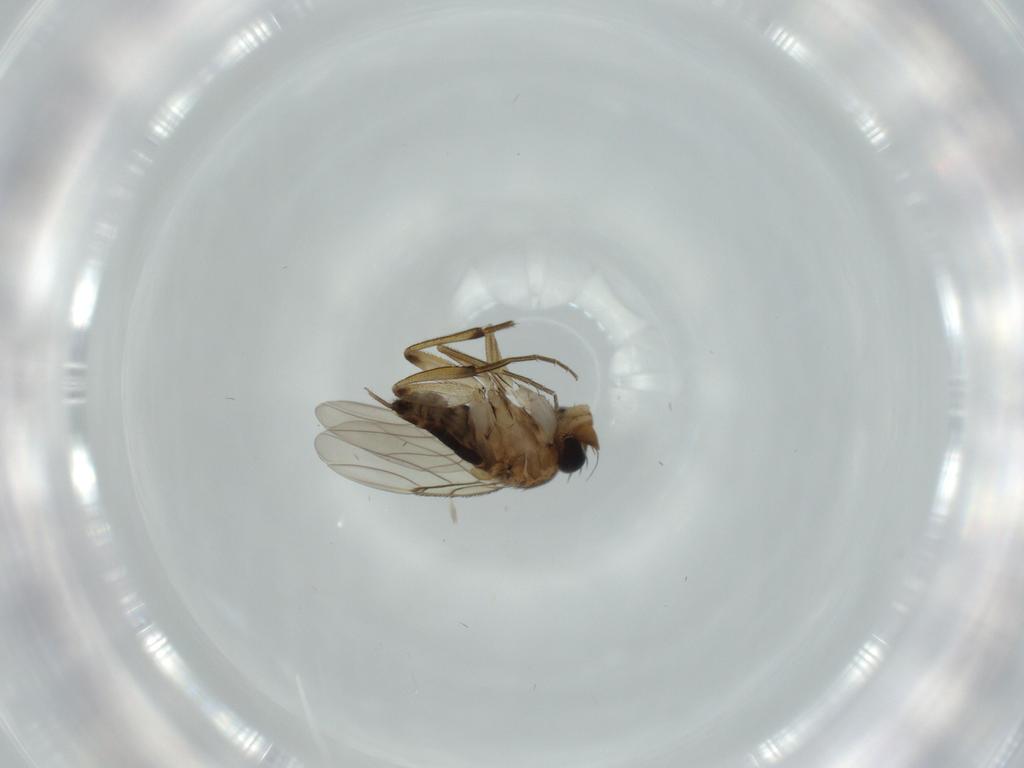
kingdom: Animalia
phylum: Arthropoda
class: Insecta
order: Diptera
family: Phoridae
